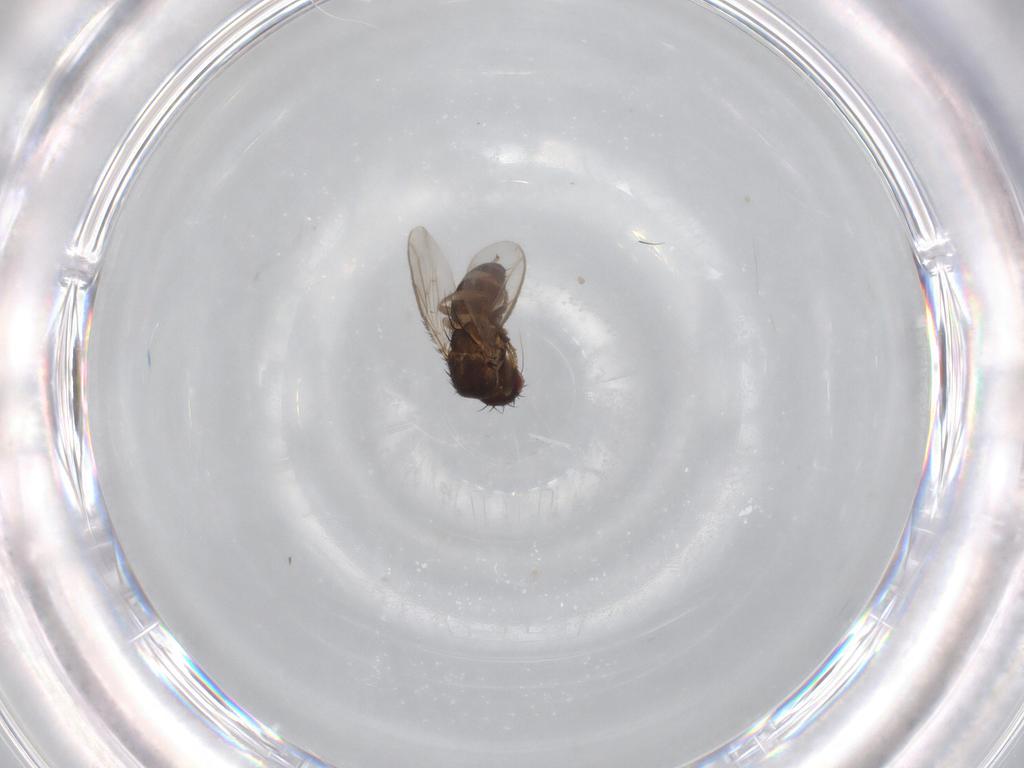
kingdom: Animalia
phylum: Arthropoda
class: Insecta
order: Diptera
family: Sphaeroceridae
